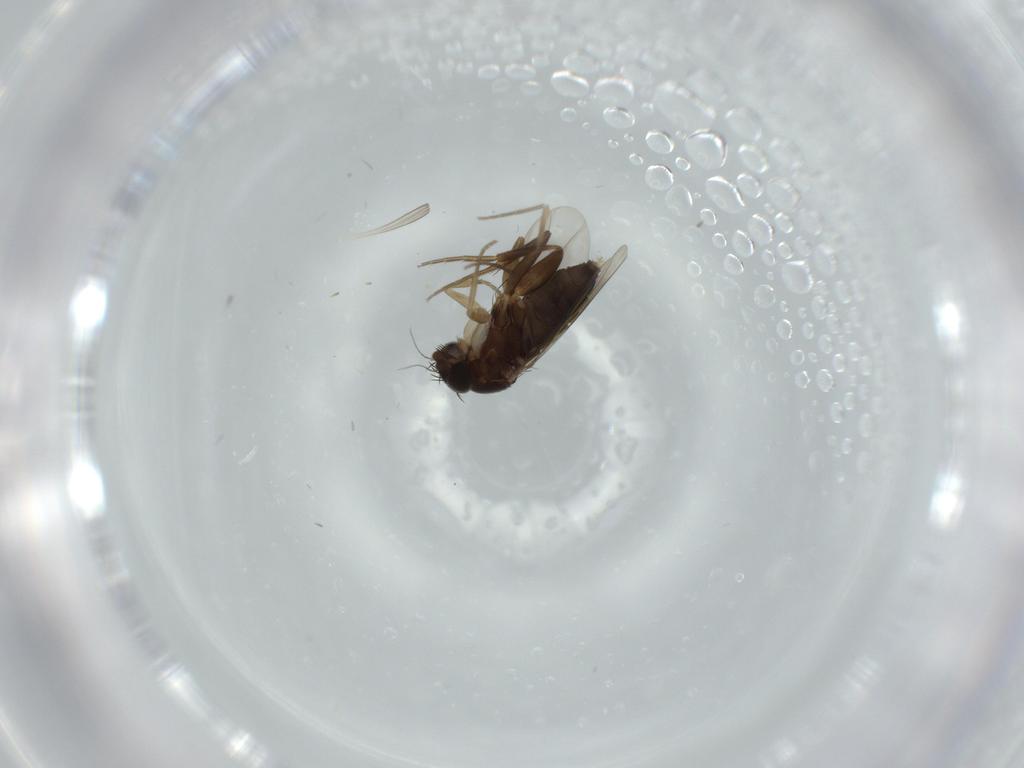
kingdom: Animalia
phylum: Arthropoda
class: Insecta
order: Diptera
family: Phoridae
